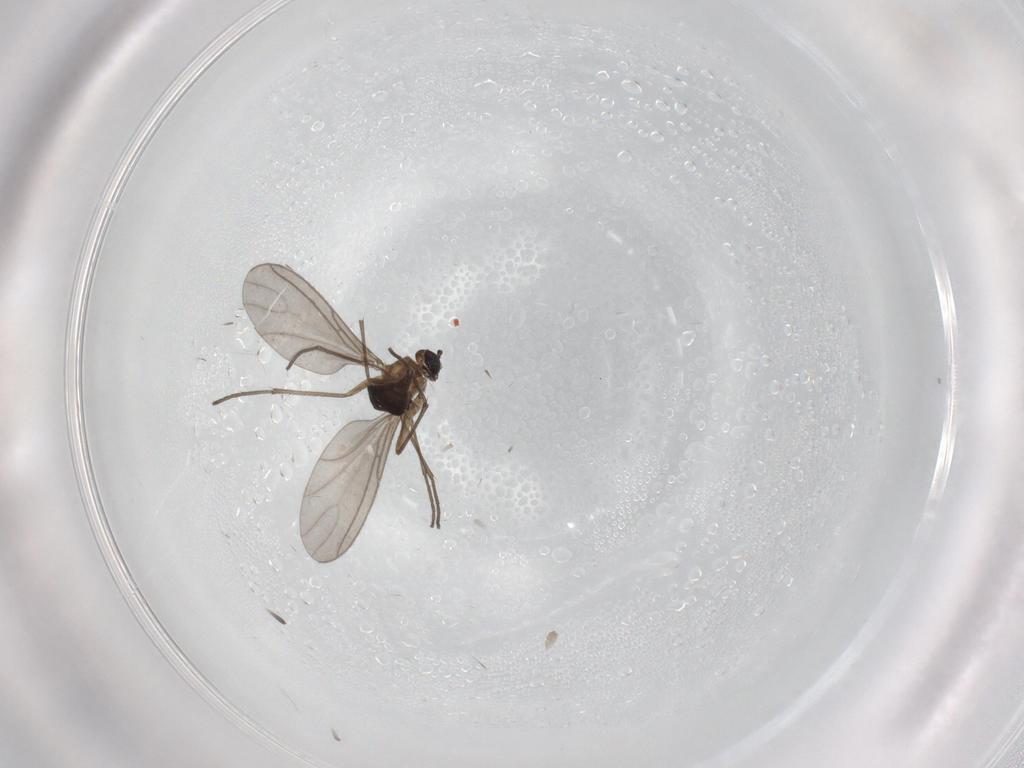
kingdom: Animalia
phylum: Arthropoda
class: Insecta
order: Diptera
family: Sciaridae
